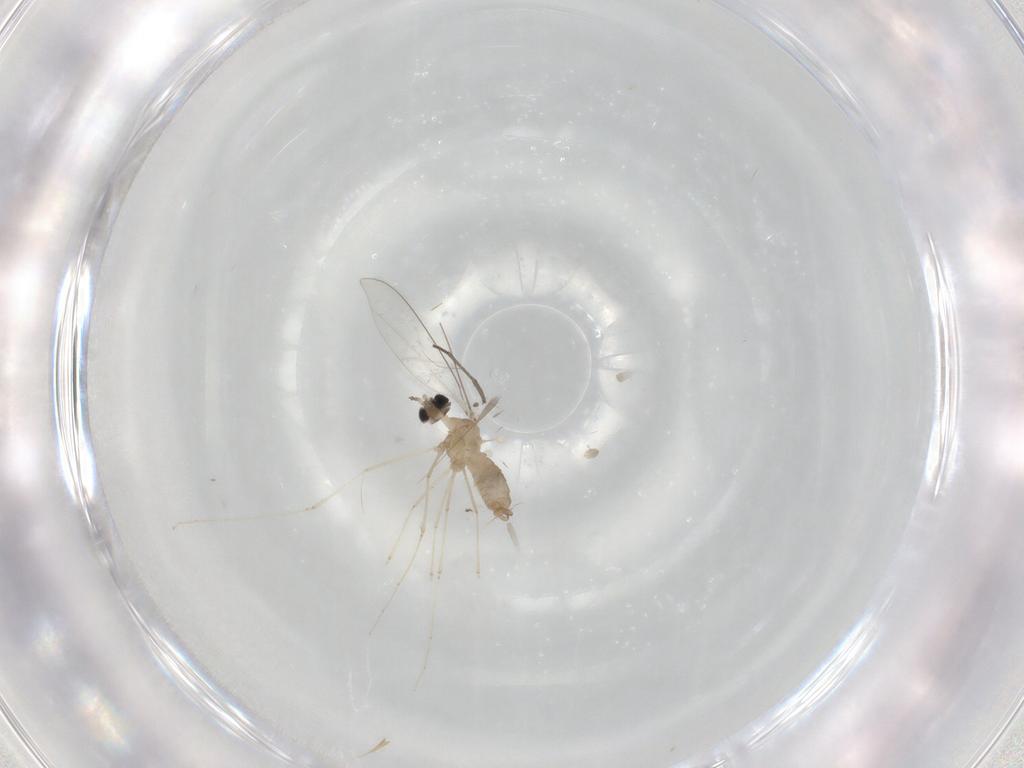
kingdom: Animalia
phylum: Arthropoda
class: Insecta
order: Diptera
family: Cecidomyiidae
